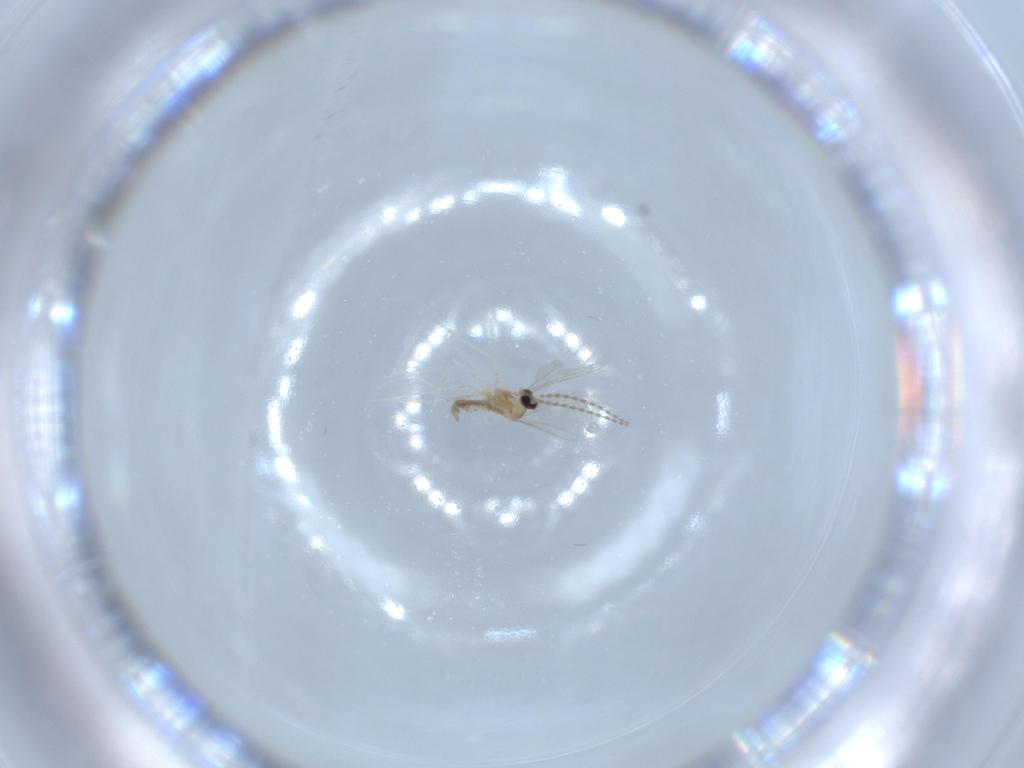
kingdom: Animalia
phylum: Arthropoda
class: Insecta
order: Diptera
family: Cecidomyiidae
